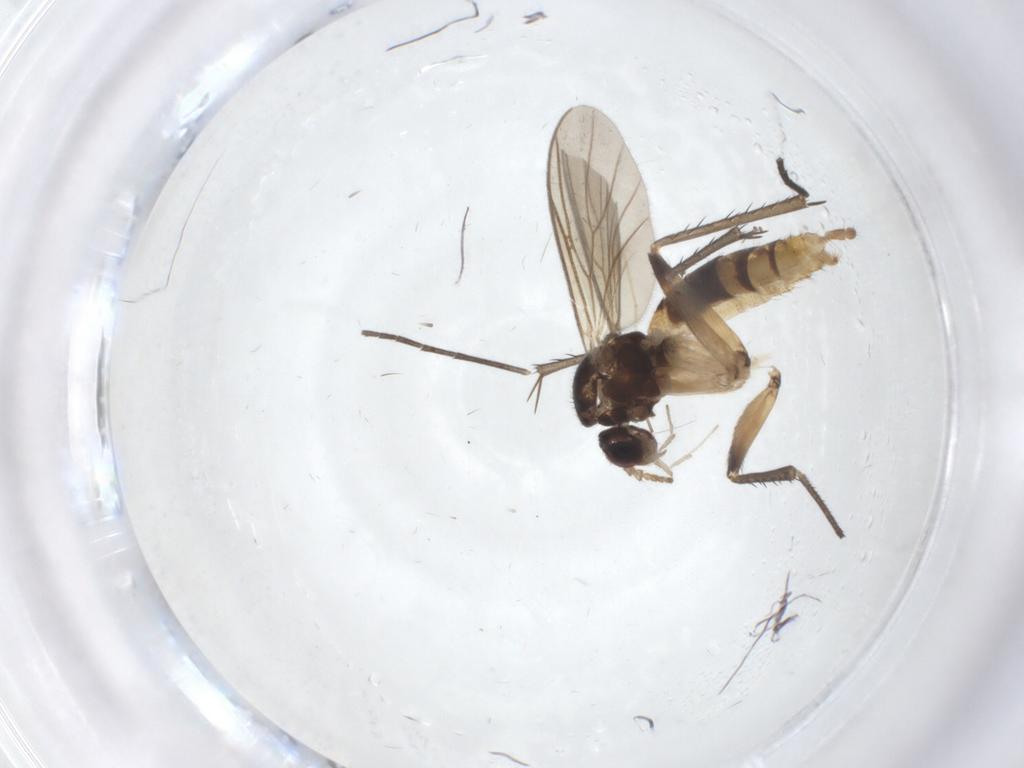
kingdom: Animalia
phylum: Arthropoda
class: Insecta
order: Diptera
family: Mycetophilidae
